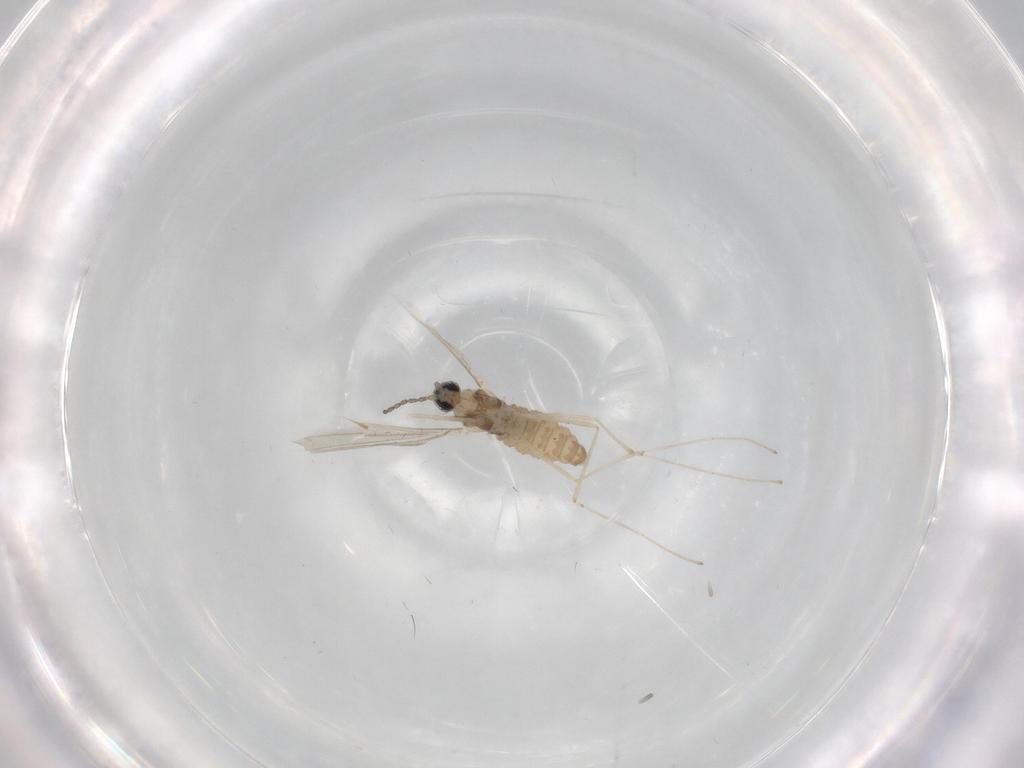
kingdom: Animalia
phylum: Arthropoda
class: Insecta
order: Diptera
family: Cecidomyiidae
